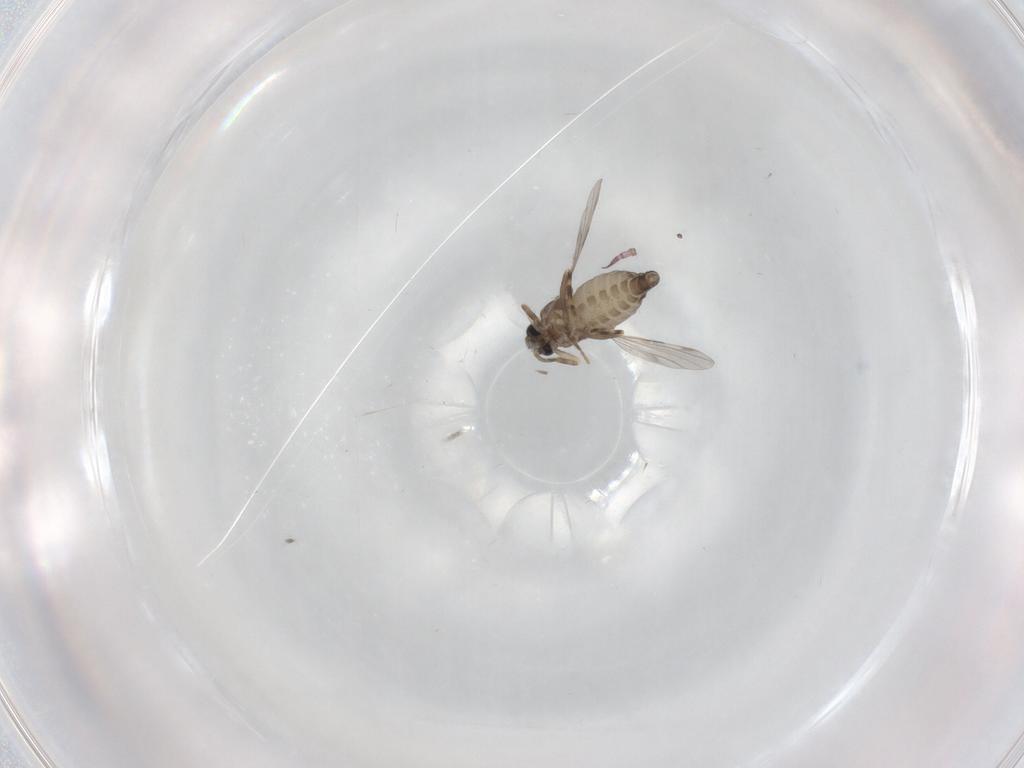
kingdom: Animalia
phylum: Arthropoda
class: Insecta
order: Diptera
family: Ceratopogonidae
